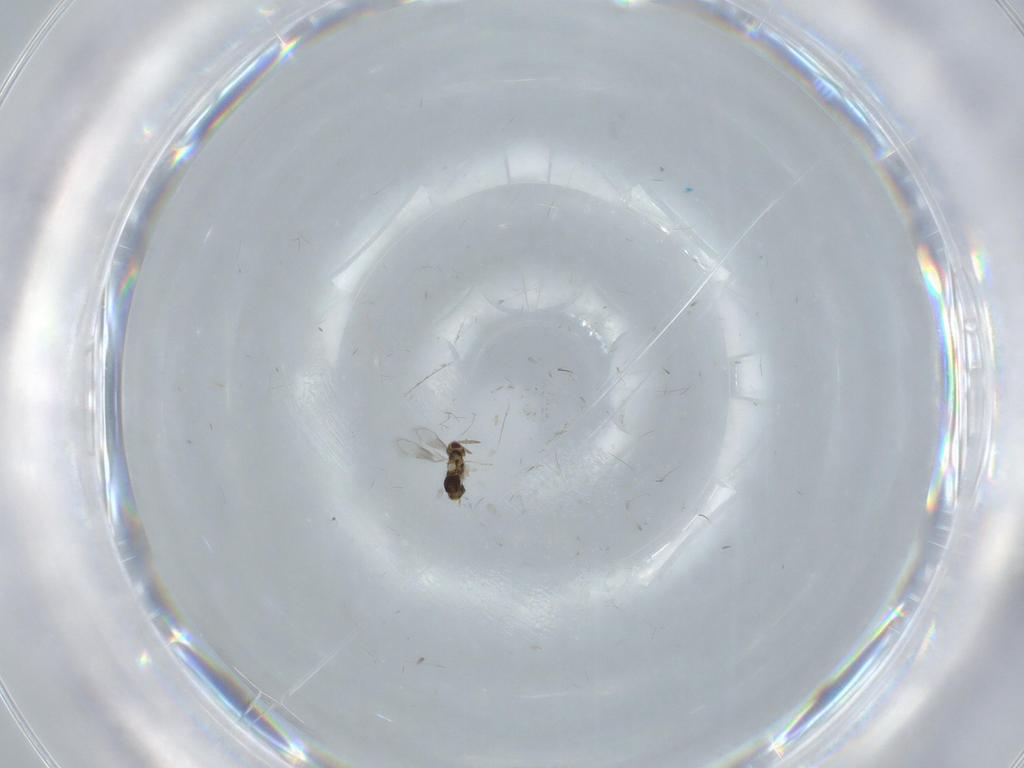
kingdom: Animalia
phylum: Arthropoda
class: Insecta
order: Hymenoptera
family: Aphelinidae
